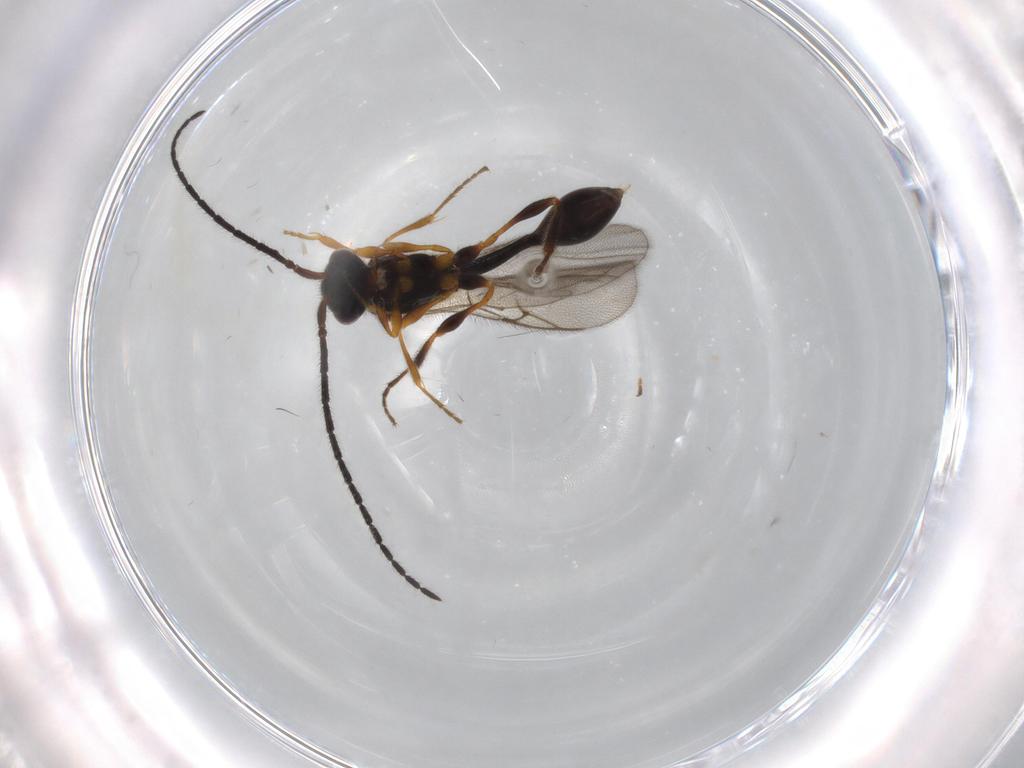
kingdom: Animalia
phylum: Arthropoda
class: Insecta
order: Hymenoptera
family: Diapriidae
